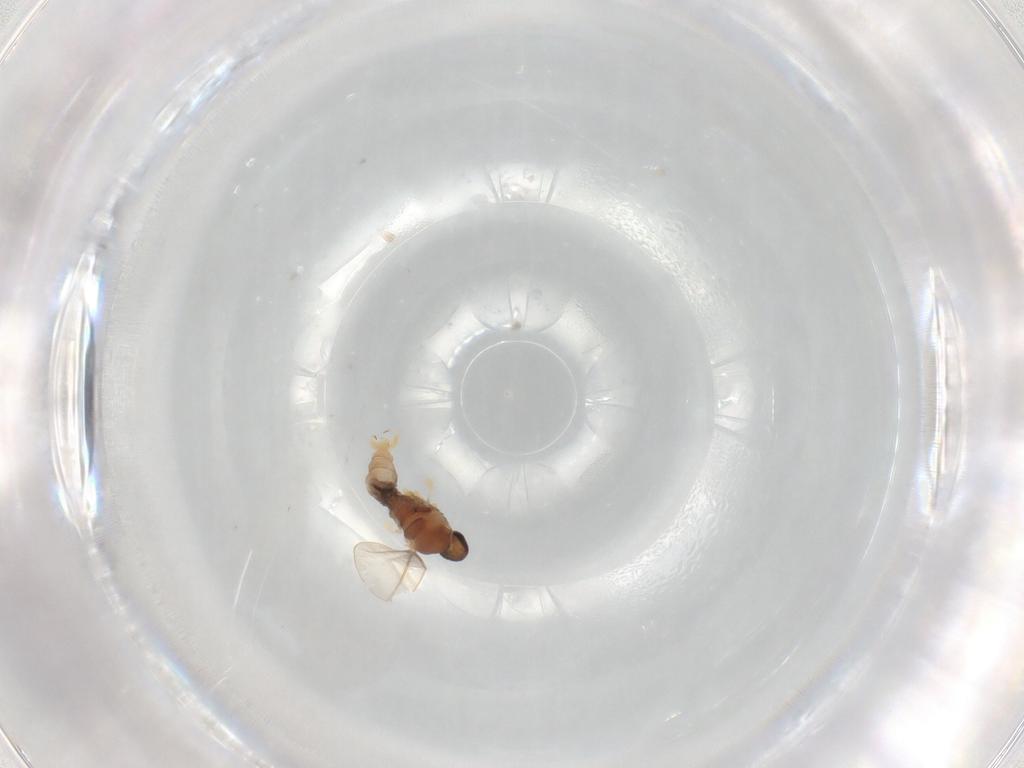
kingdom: Animalia
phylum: Arthropoda
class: Insecta
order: Diptera
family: Cecidomyiidae
